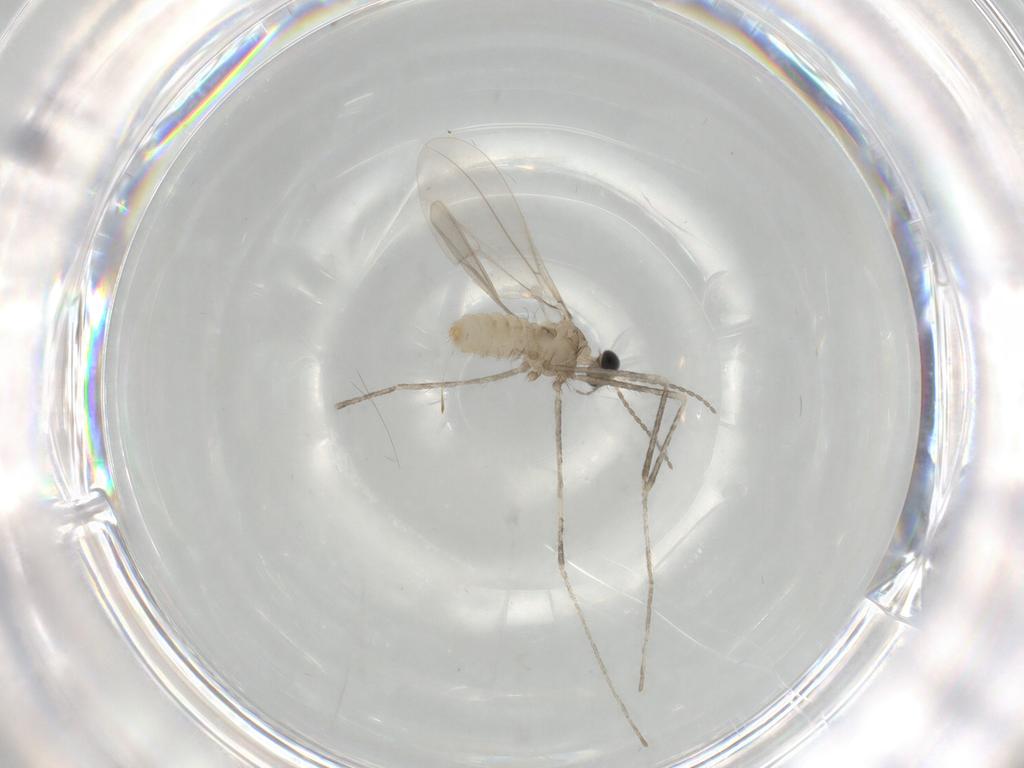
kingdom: Animalia
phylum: Arthropoda
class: Insecta
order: Diptera
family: Cecidomyiidae
